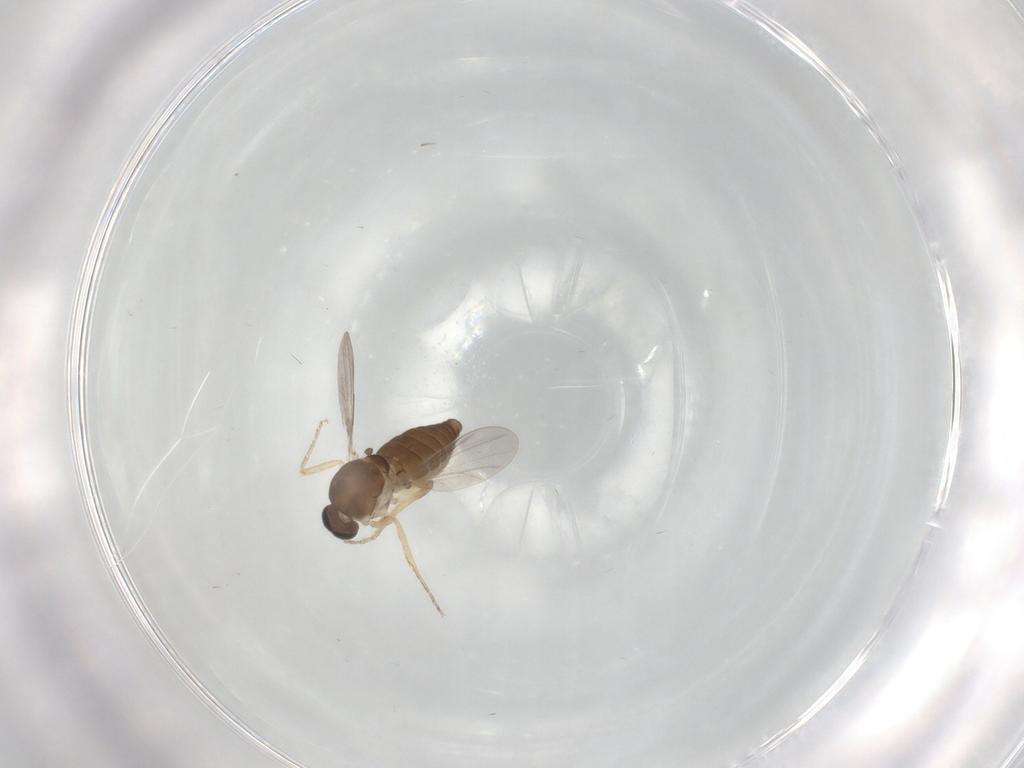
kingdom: Animalia
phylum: Arthropoda
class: Insecta
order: Diptera
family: Ceratopogonidae
